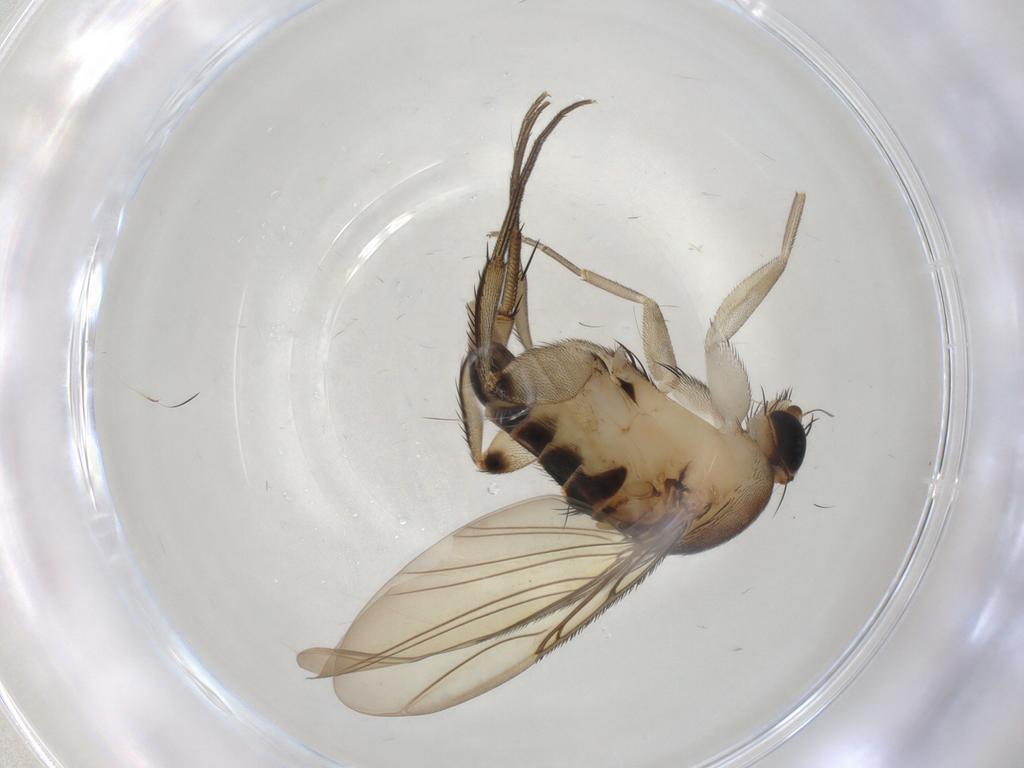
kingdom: Animalia
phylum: Arthropoda
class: Insecta
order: Diptera
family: Phoridae
